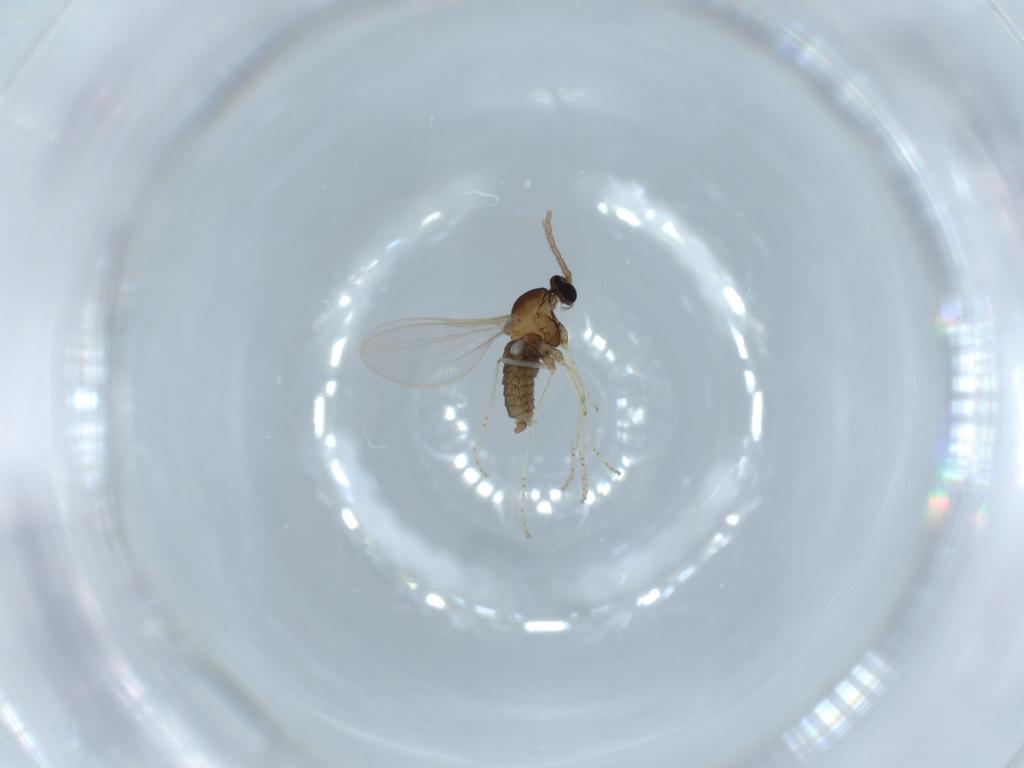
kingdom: Animalia
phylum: Arthropoda
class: Insecta
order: Diptera
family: Cecidomyiidae
